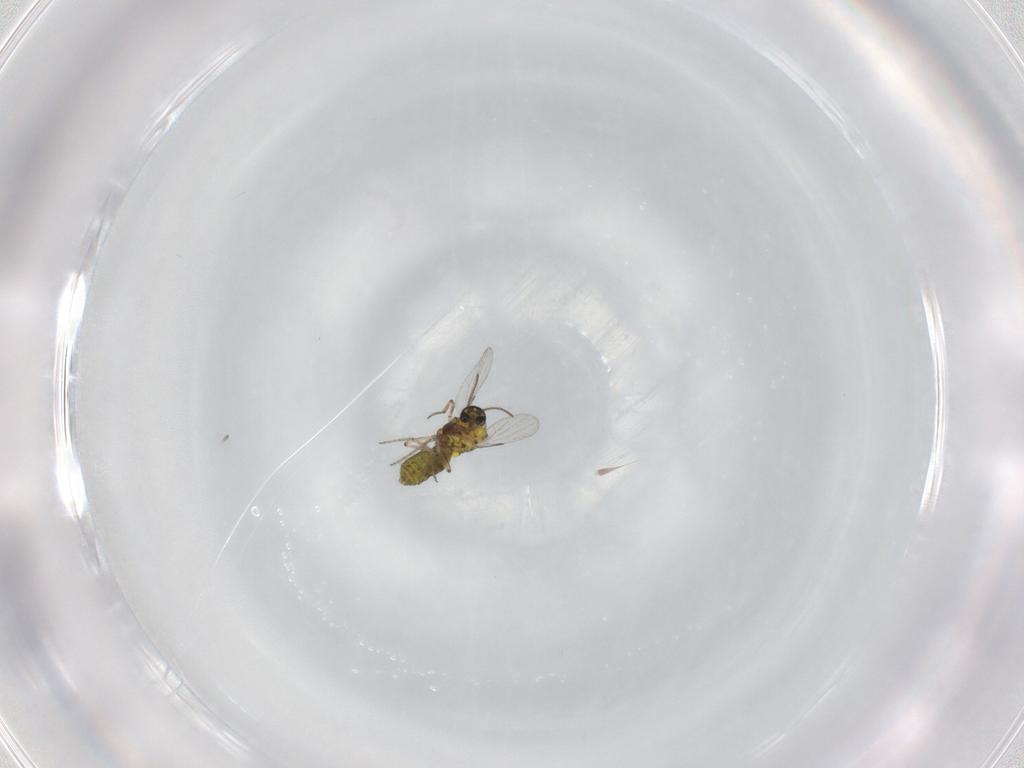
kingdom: Animalia
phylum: Arthropoda
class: Insecta
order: Diptera
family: Ceratopogonidae
